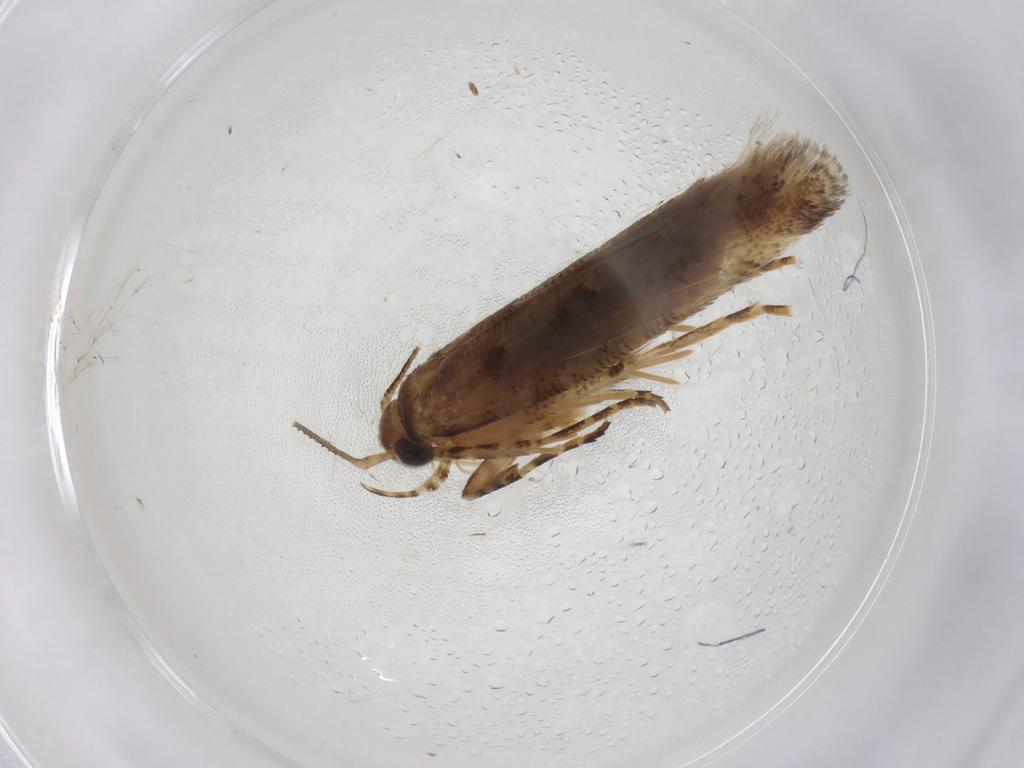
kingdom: Animalia
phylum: Arthropoda
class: Insecta
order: Lepidoptera
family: Gelechiidae
